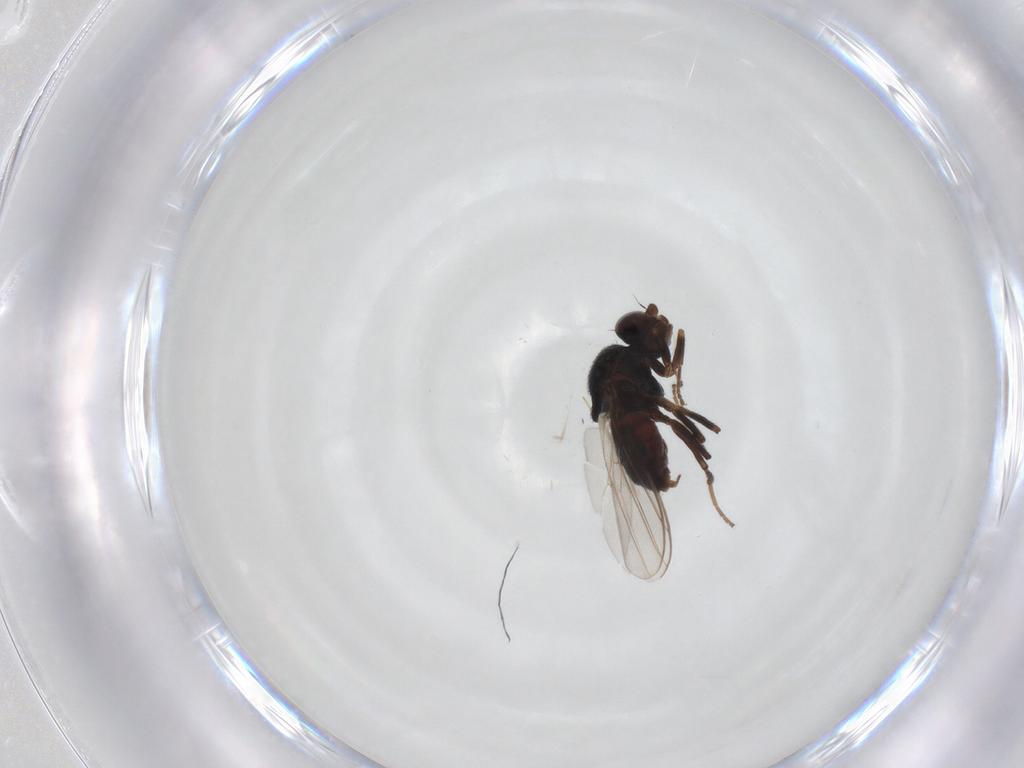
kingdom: Animalia
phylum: Arthropoda
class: Insecta
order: Diptera
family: Chloropidae
